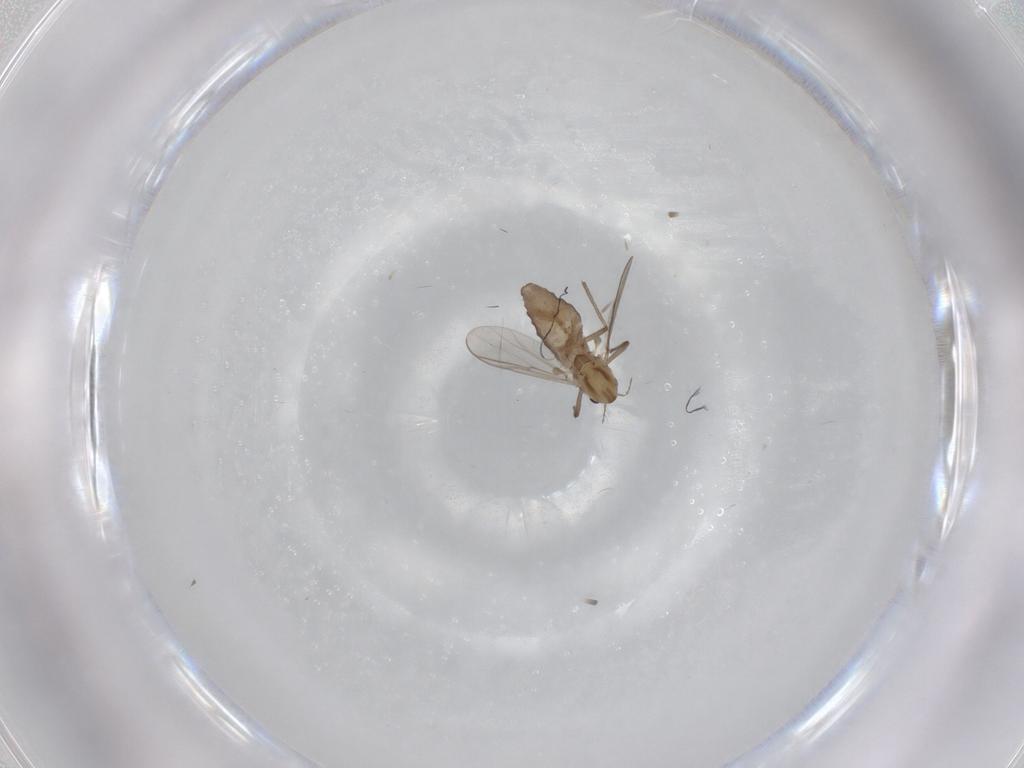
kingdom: Animalia
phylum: Arthropoda
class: Insecta
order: Diptera
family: Chironomidae
